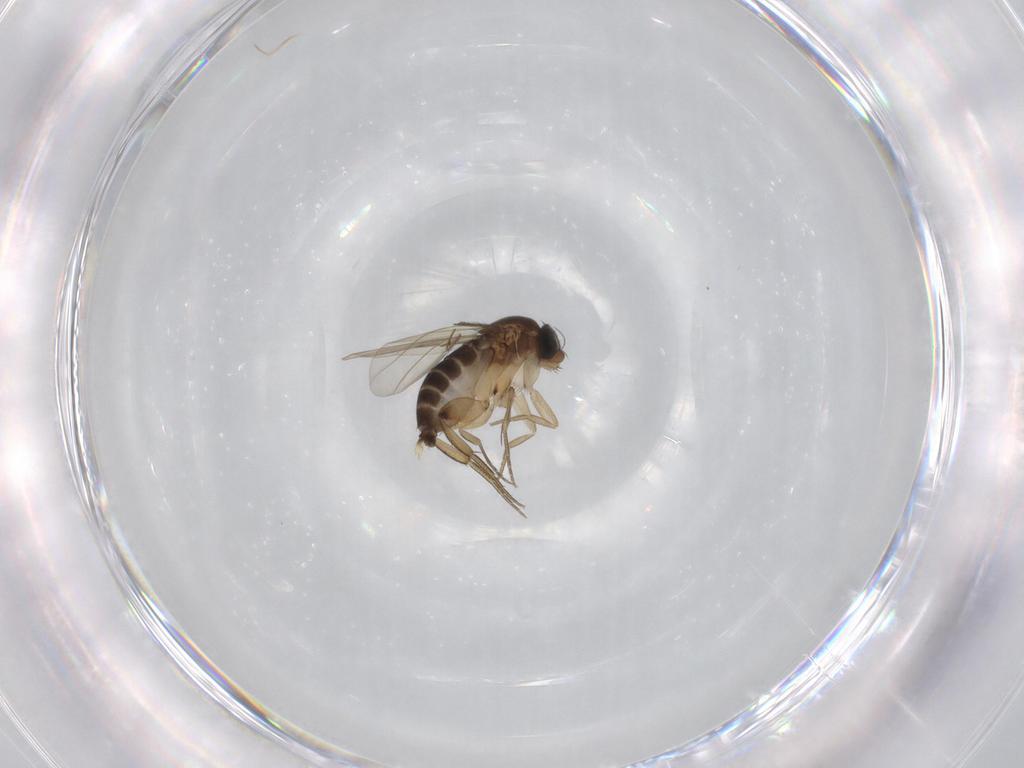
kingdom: Animalia
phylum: Arthropoda
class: Insecta
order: Diptera
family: Phoridae
